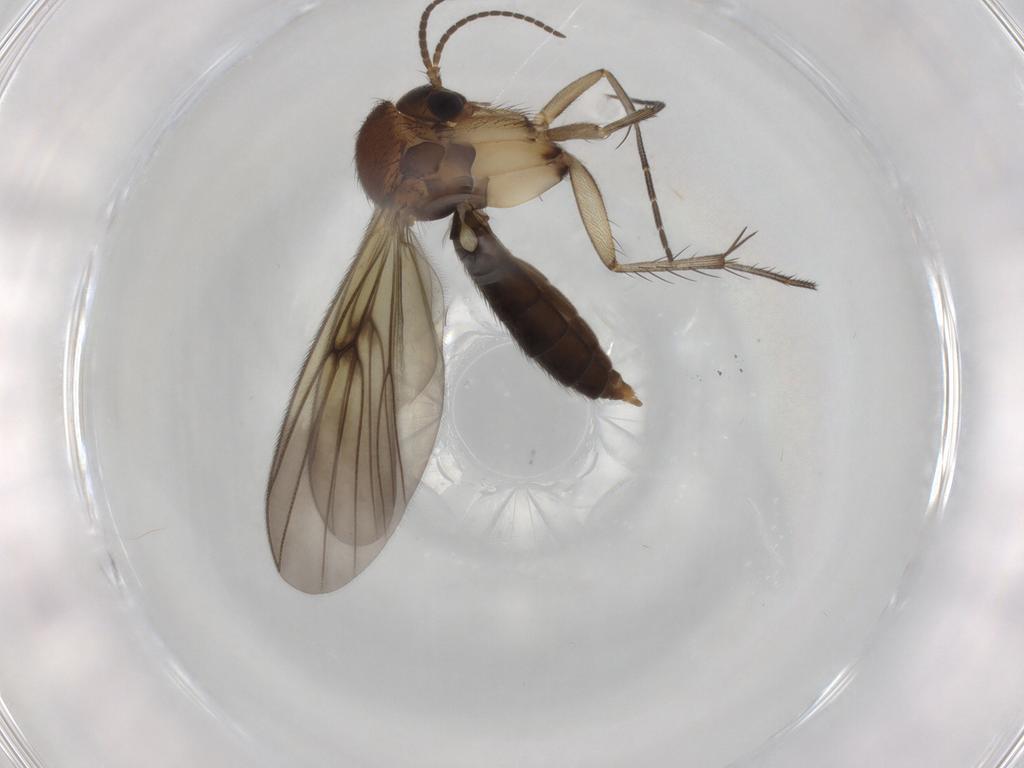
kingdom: Animalia
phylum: Arthropoda
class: Insecta
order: Diptera
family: Muscidae
